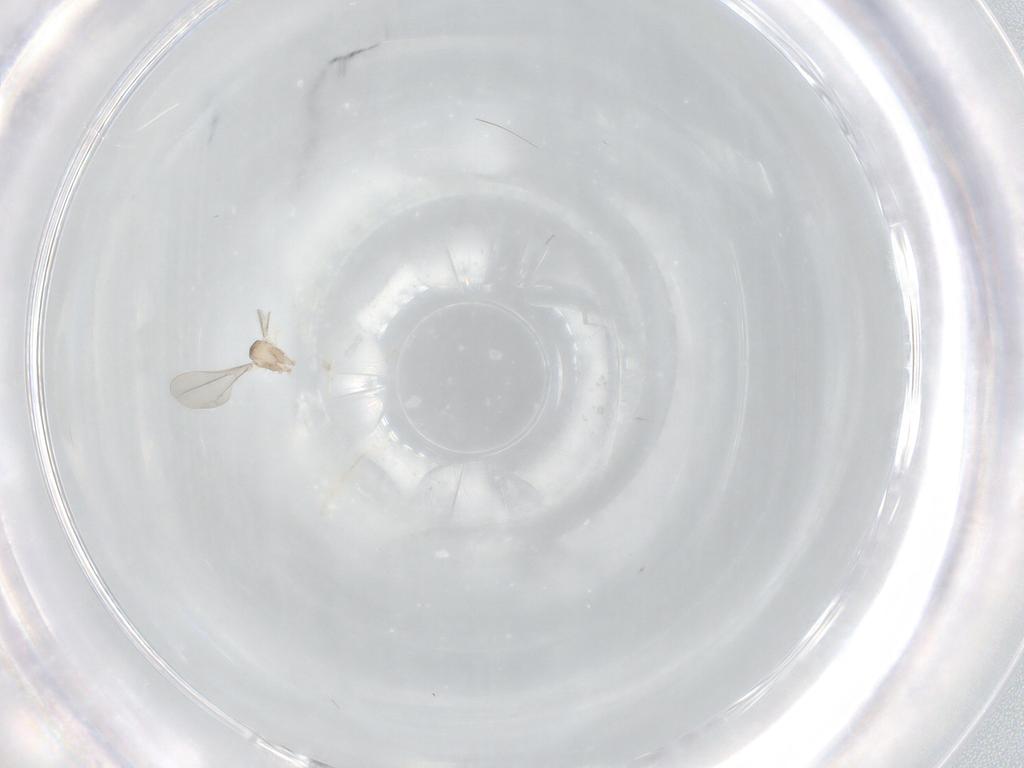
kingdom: Animalia
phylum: Arthropoda
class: Insecta
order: Diptera
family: Cecidomyiidae
